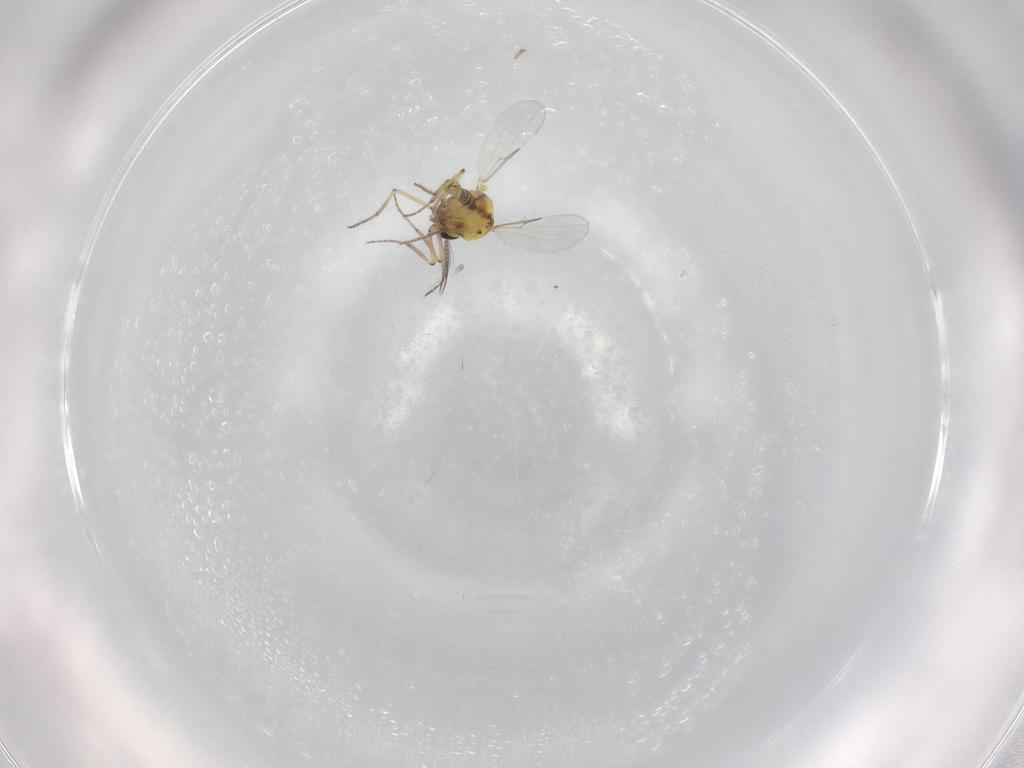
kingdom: Animalia
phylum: Arthropoda
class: Insecta
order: Diptera
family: Ceratopogonidae
